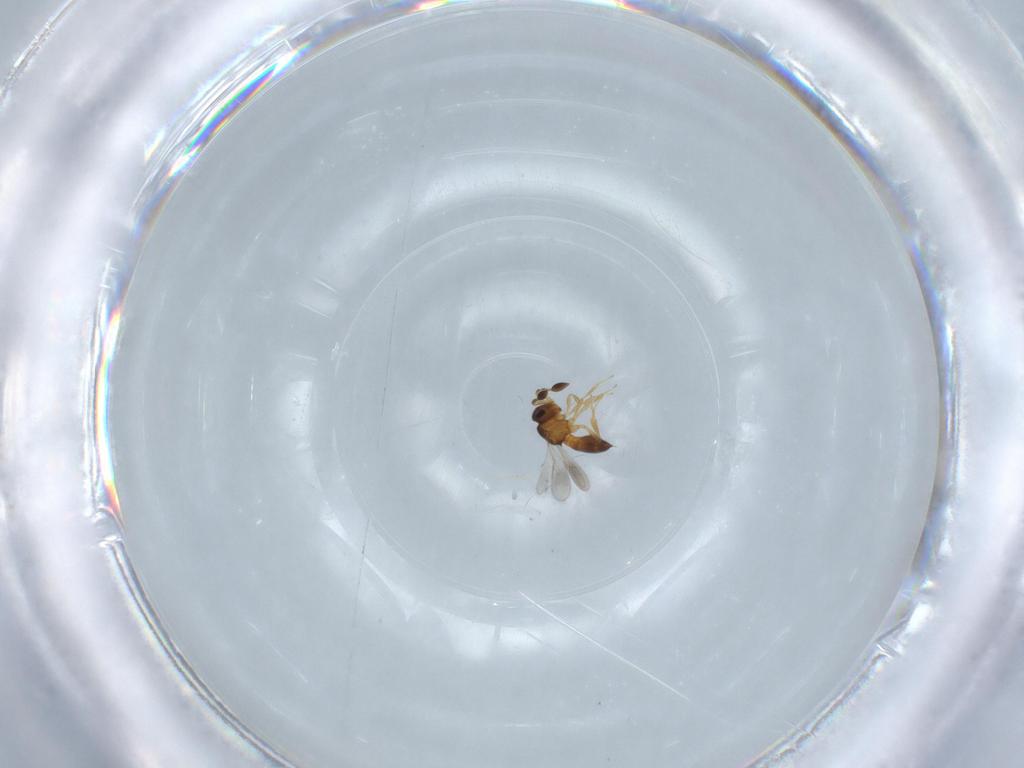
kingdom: Animalia
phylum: Arthropoda
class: Insecta
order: Hymenoptera
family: Scelionidae
